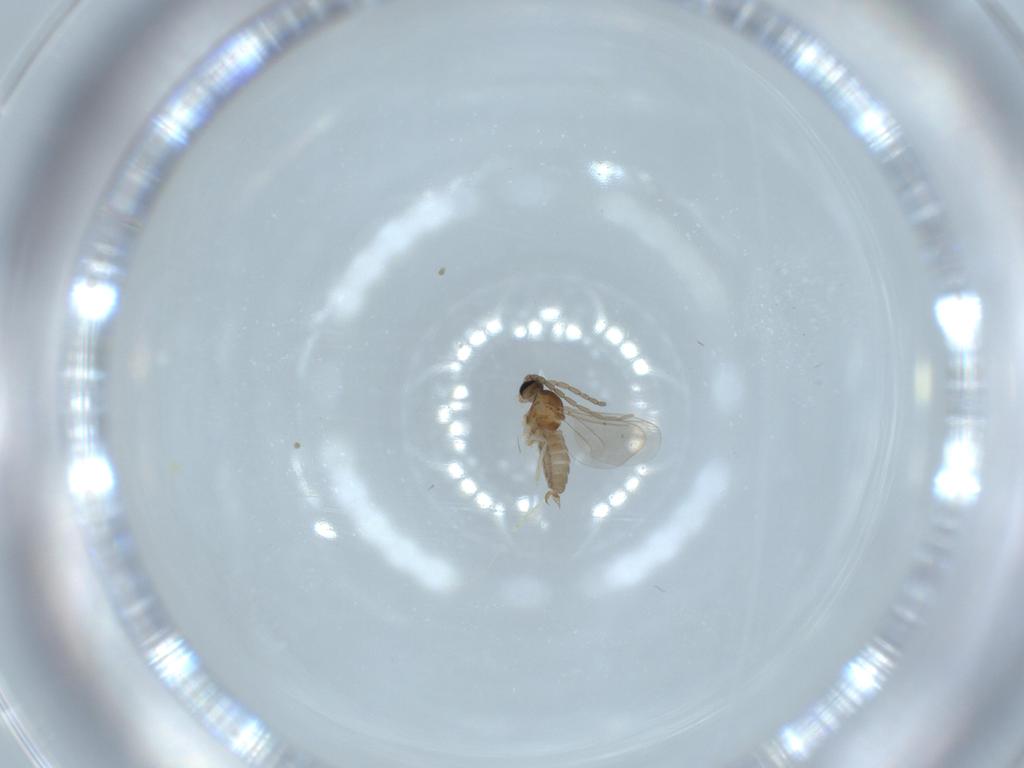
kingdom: Animalia
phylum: Arthropoda
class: Insecta
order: Diptera
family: Cecidomyiidae
